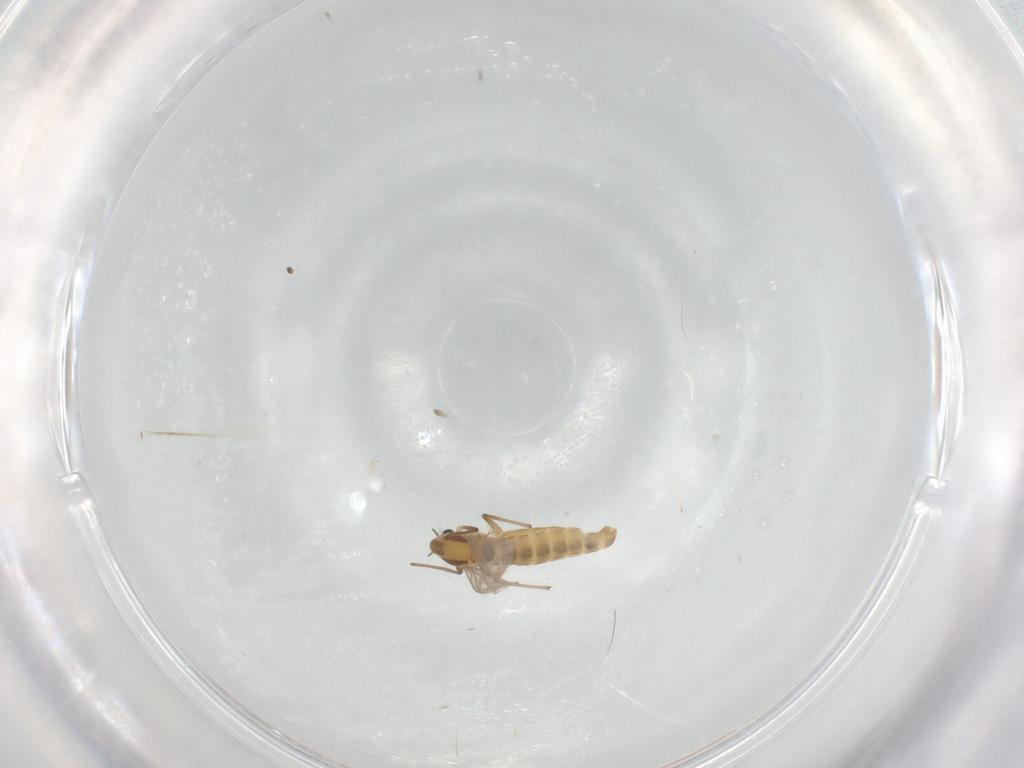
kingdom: Animalia
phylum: Arthropoda
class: Insecta
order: Diptera
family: Chironomidae
